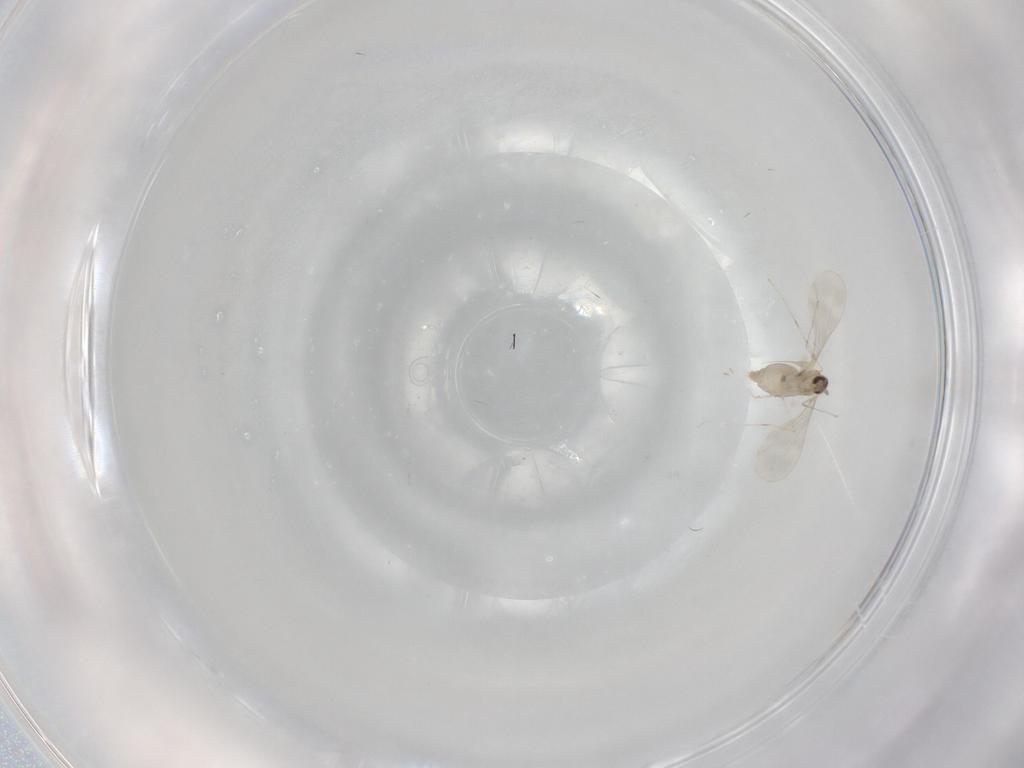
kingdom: Animalia
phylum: Arthropoda
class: Insecta
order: Diptera
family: Cecidomyiidae
